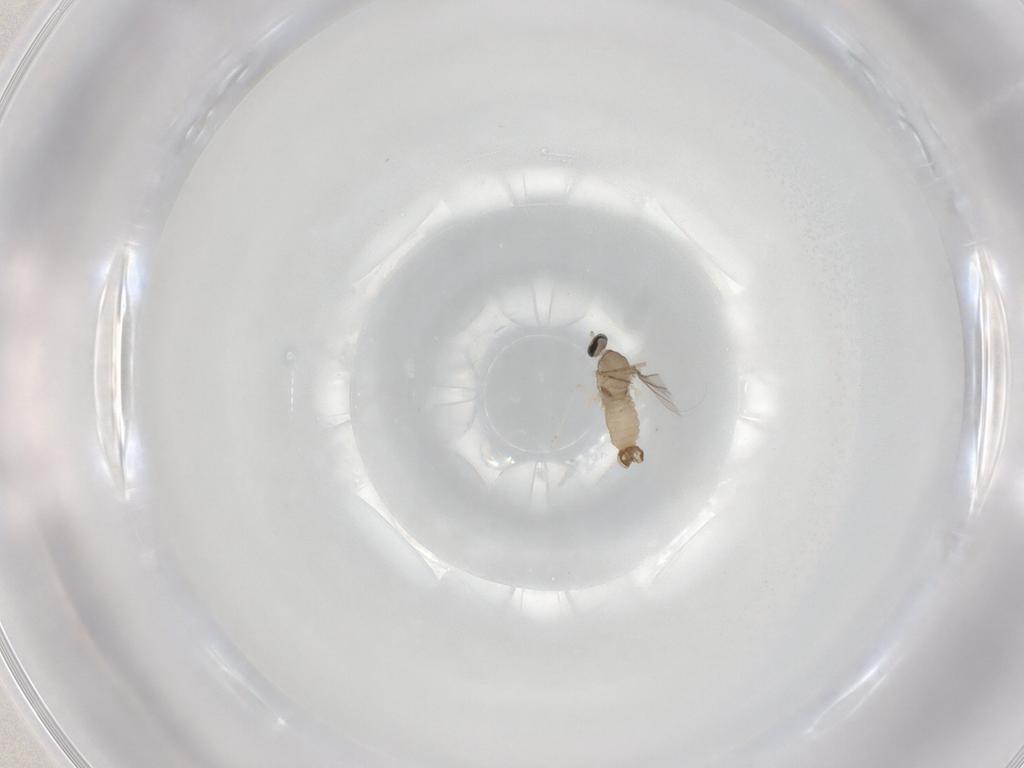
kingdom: Animalia
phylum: Arthropoda
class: Insecta
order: Diptera
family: Cecidomyiidae
